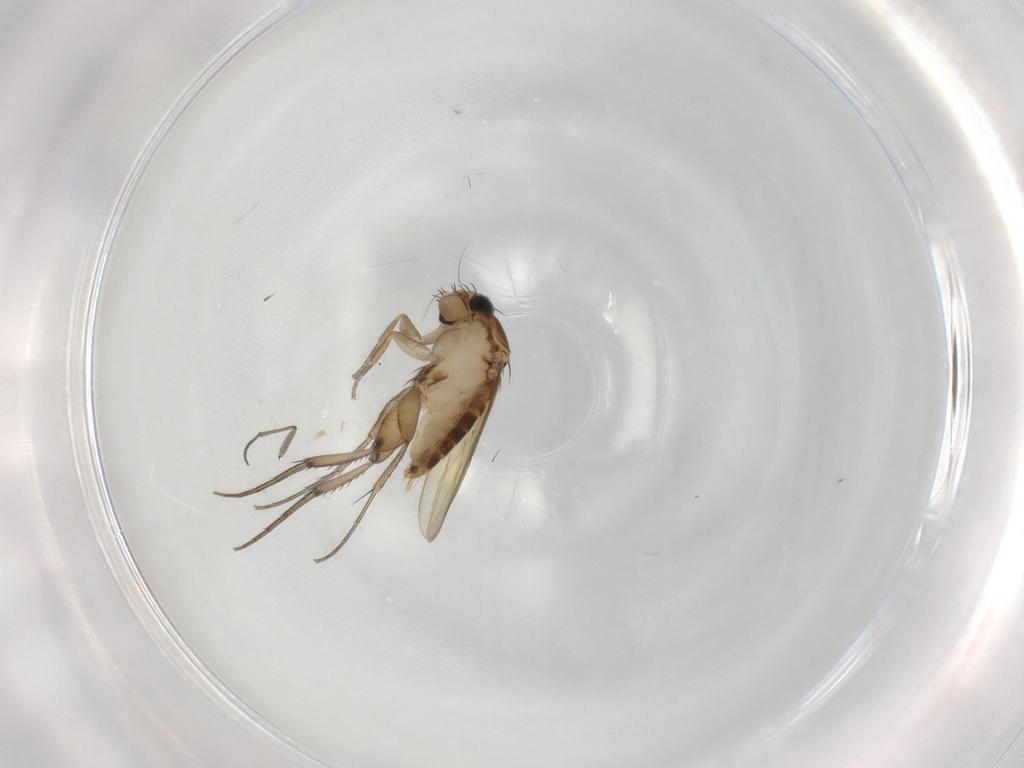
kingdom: Animalia
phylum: Arthropoda
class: Insecta
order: Diptera
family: Phoridae
